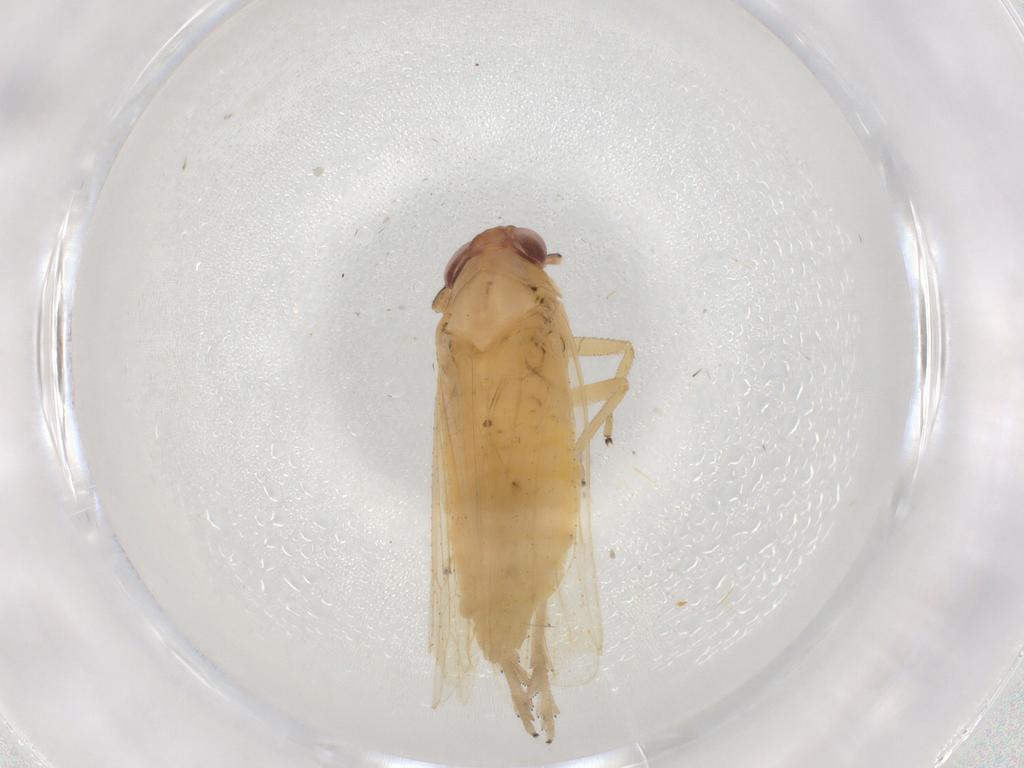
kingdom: Animalia
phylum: Arthropoda
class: Insecta
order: Hemiptera
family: Delphacidae
